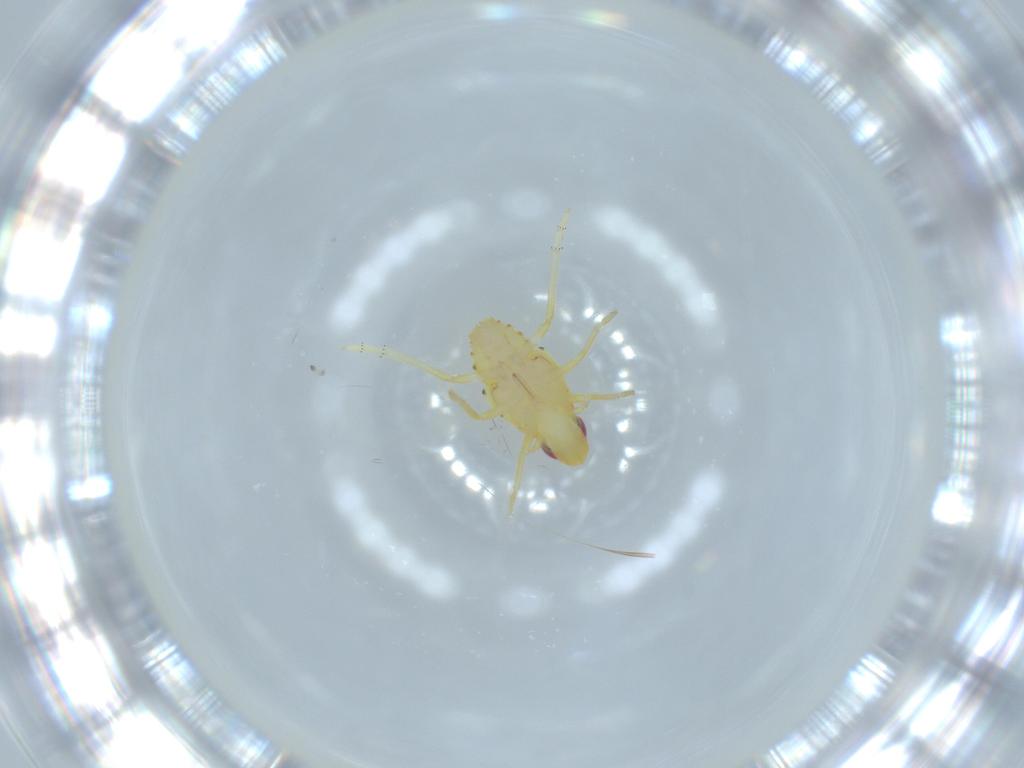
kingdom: Animalia
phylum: Arthropoda
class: Insecta
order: Hemiptera
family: Tropiduchidae
